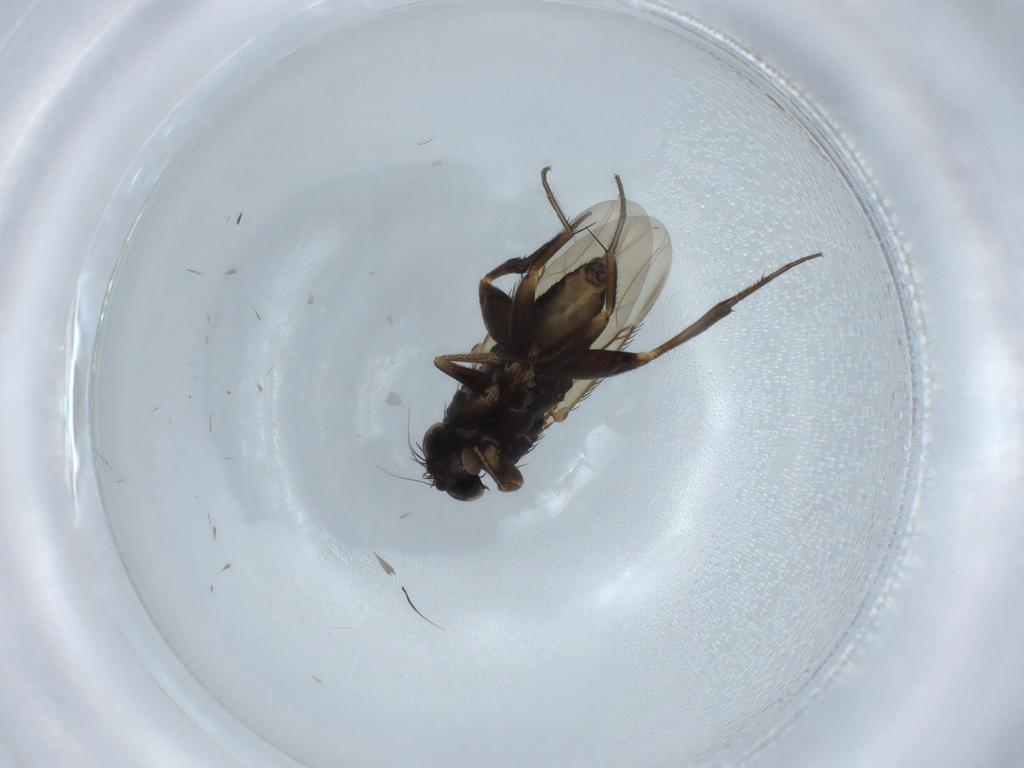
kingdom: Animalia
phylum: Arthropoda
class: Insecta
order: Diptera
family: Phoridae
